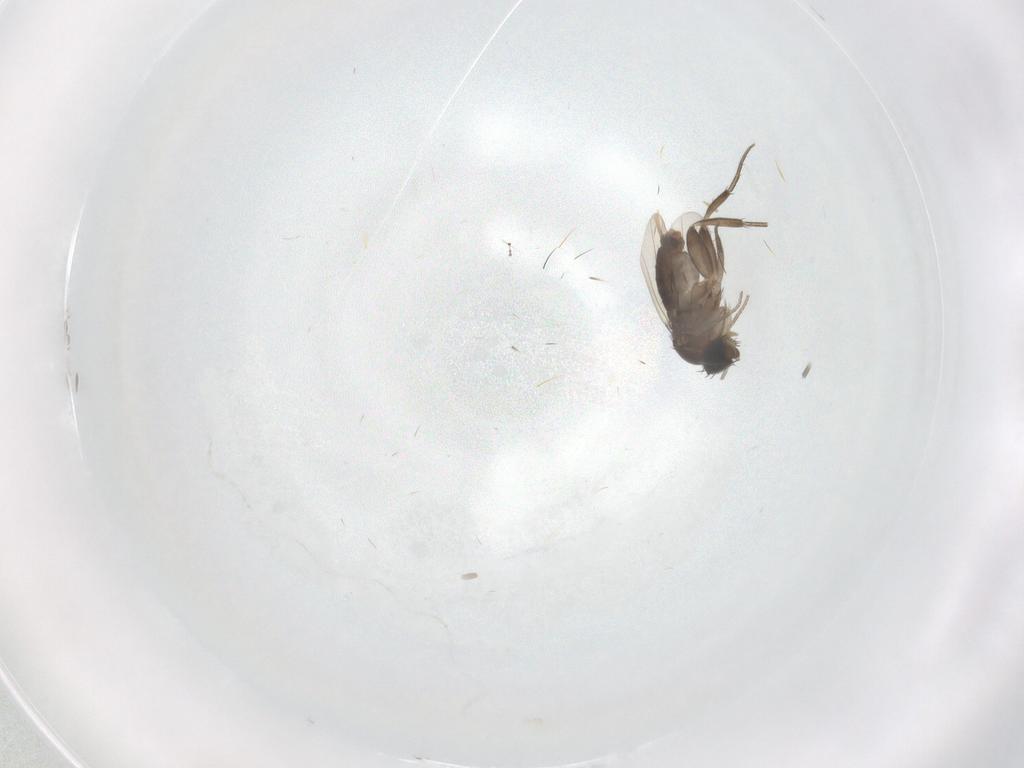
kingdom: Animalia
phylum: Arthropoda
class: Insecta
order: Diptera
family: Phoridae
